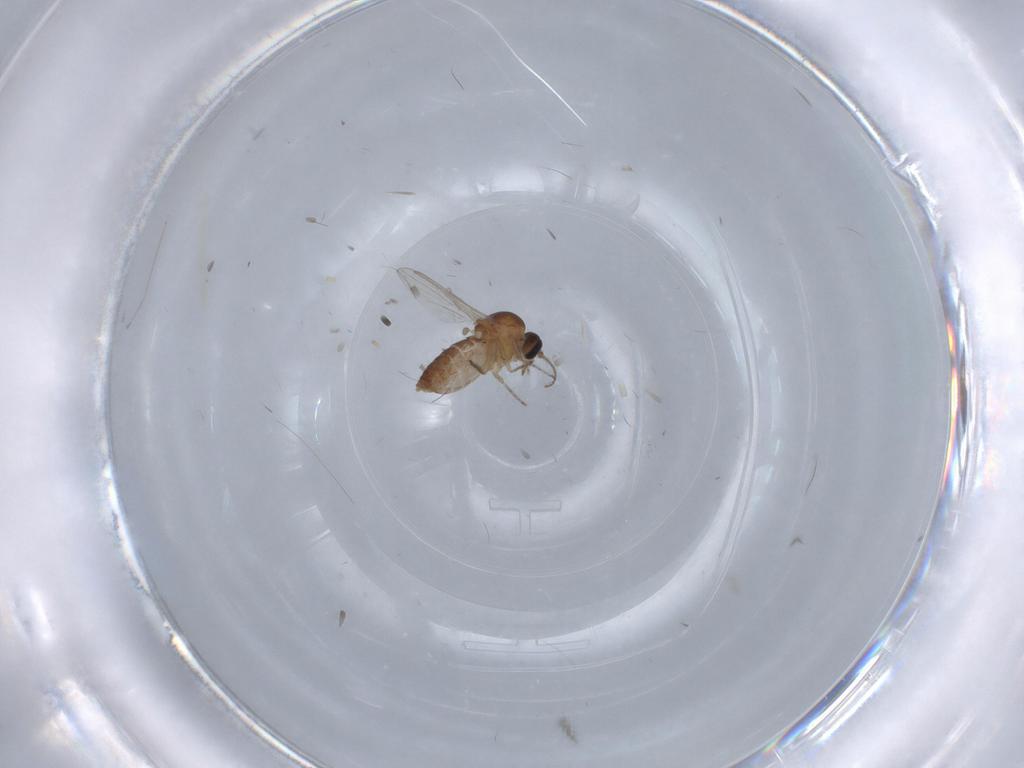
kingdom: Animalia
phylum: Arthropoda
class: Insecta
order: Diptera
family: Ceratopogonidae
